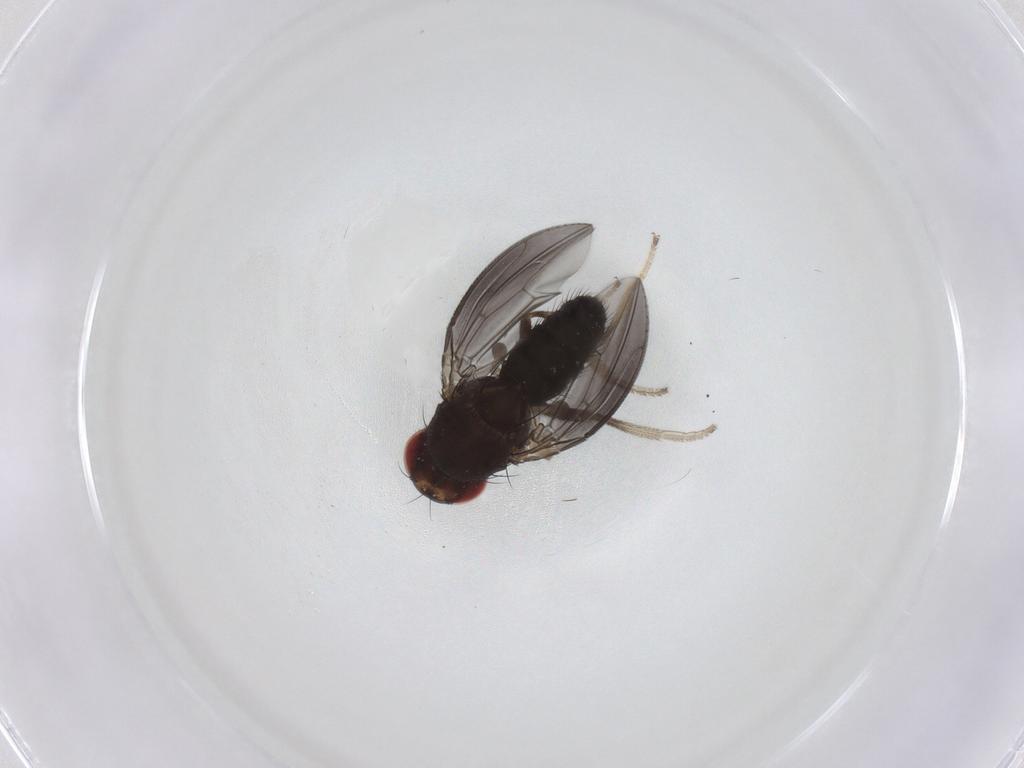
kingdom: Animalia
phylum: Arthropoda
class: Insecta
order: Diptera
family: Drosophilidae
